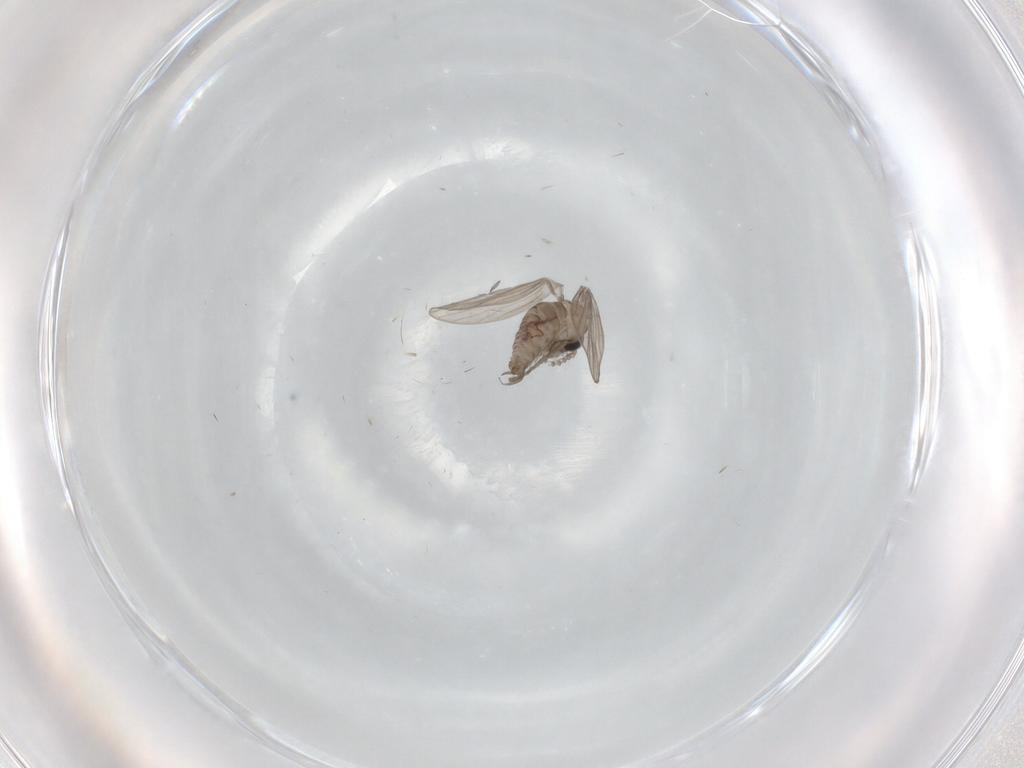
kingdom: Animalia
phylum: Arthropoda
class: Insecta
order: Diptera
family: Psychodidae
